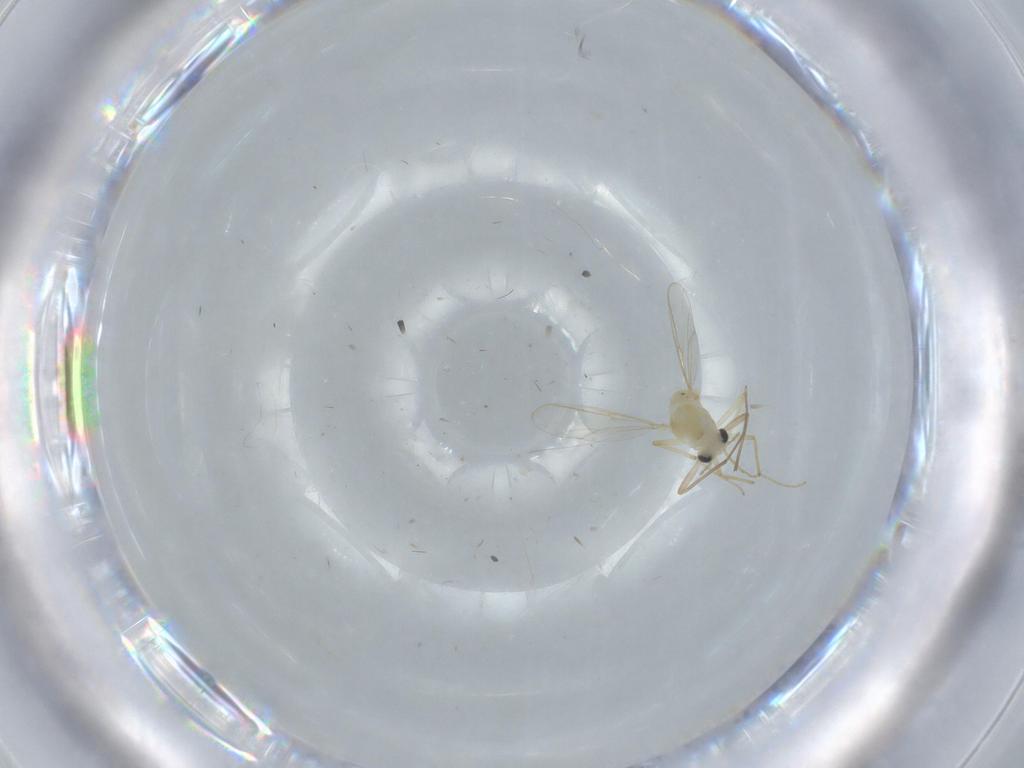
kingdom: Animalia
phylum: Arthropoda
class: Insecta
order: Diptera
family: Chironomidae
